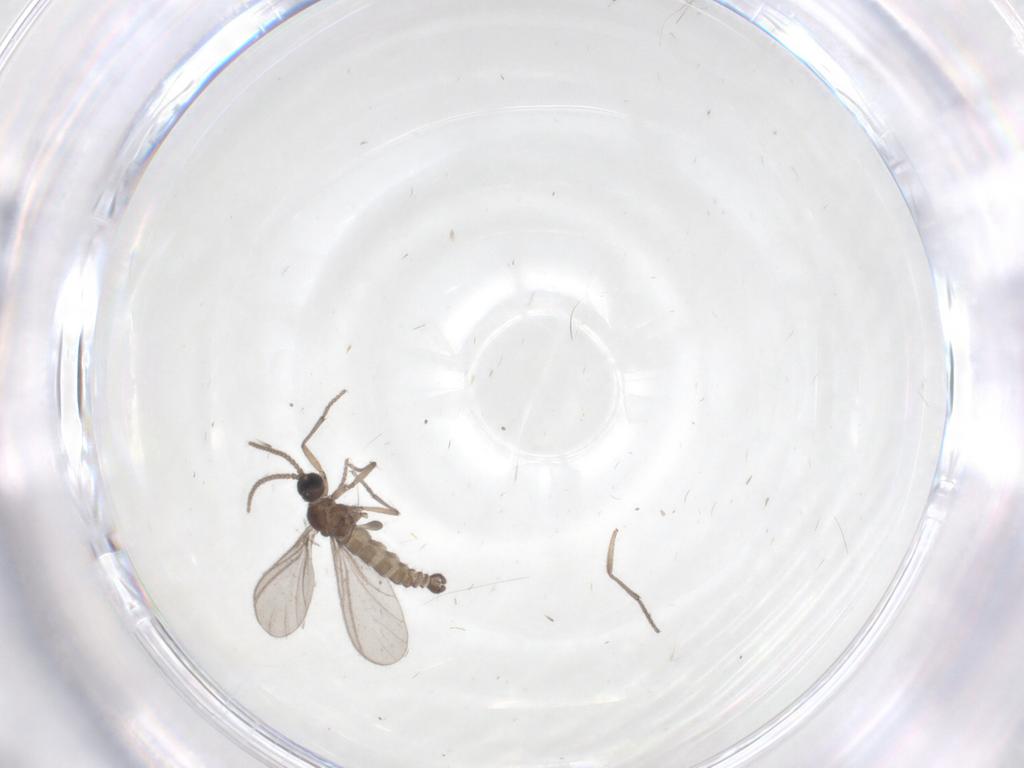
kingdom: Animalia
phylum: Arthropoda
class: Insecta
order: Diptera
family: Sciaridae
